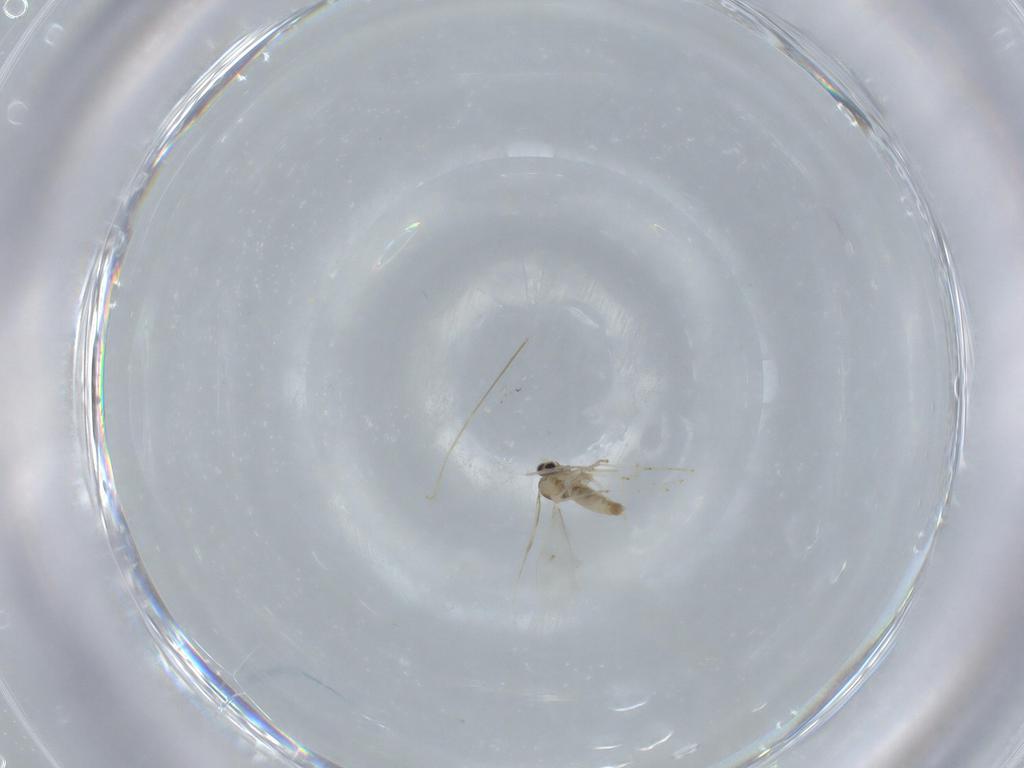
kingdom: Animalia
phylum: Arthropoda
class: Insecta
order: Diptera
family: Chironomidae
